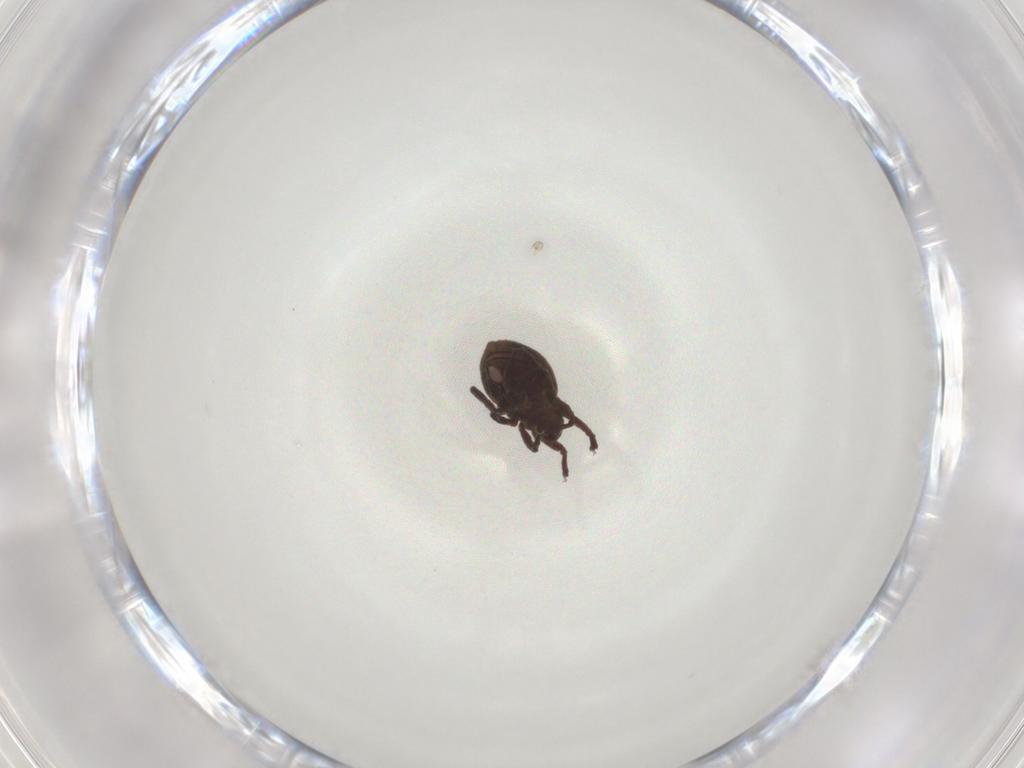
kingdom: Animalia
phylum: Arthropoda
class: Arachnida
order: Sarcoptiformes
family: Neoliodidae
